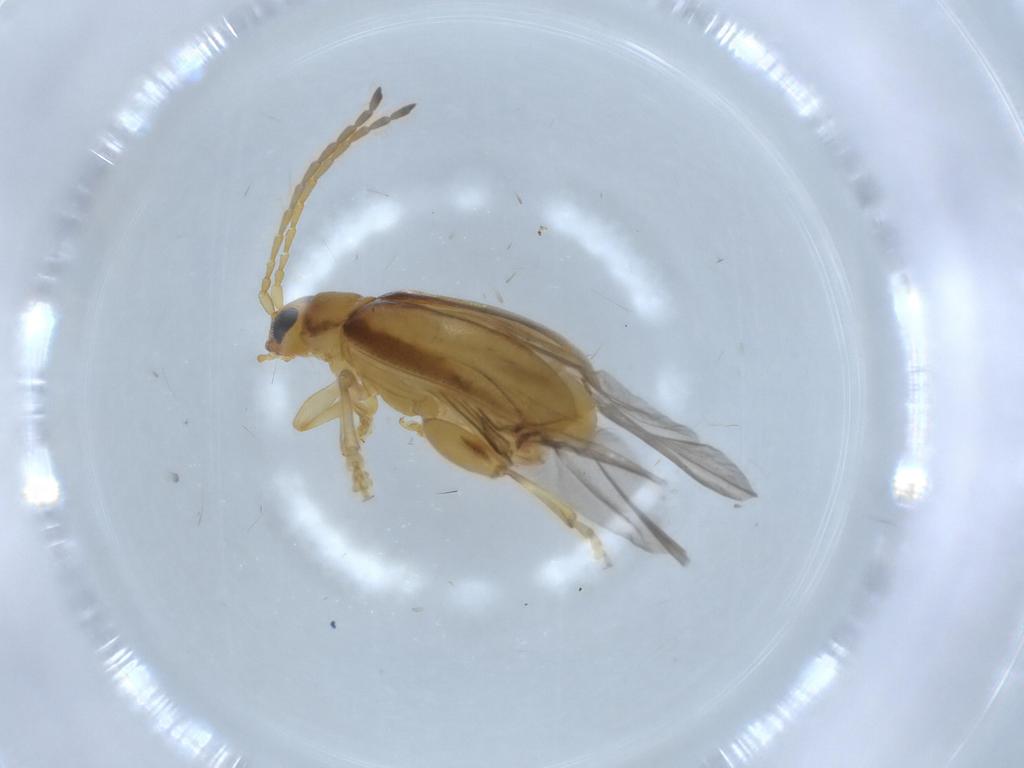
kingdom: Animalia
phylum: Arthropoda
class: Insecta
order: Coleoptera
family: Chrysomelidae
